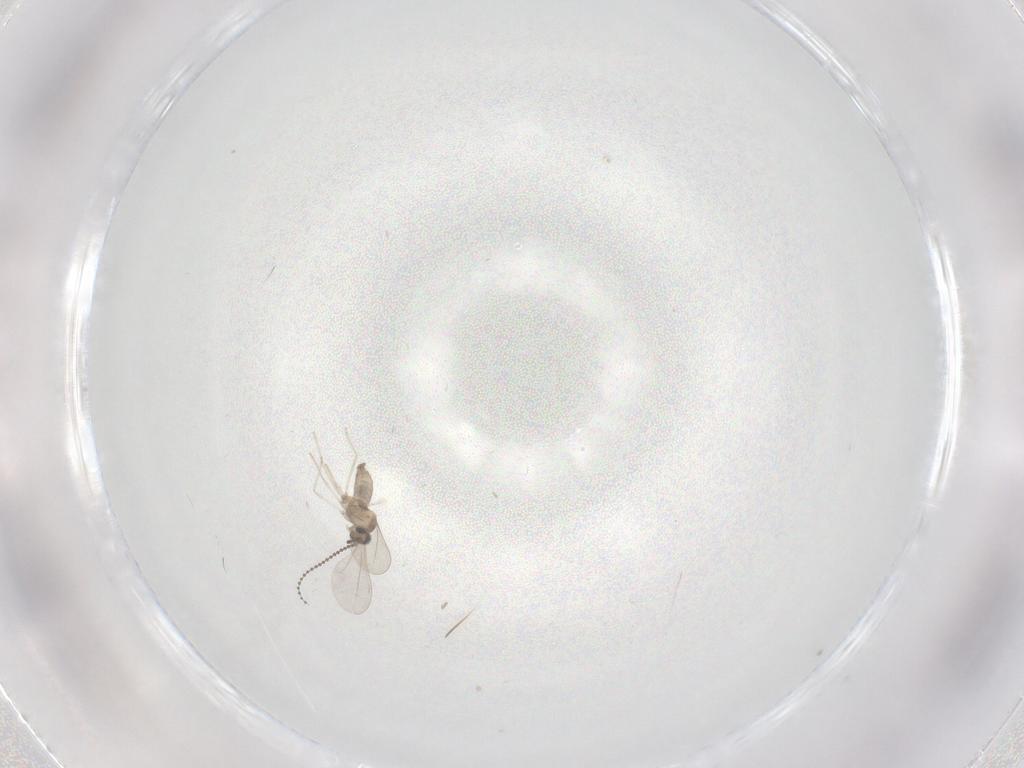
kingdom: Animalia
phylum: Arthropoda
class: Insecta
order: Diptera
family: Cecidomyiidae
